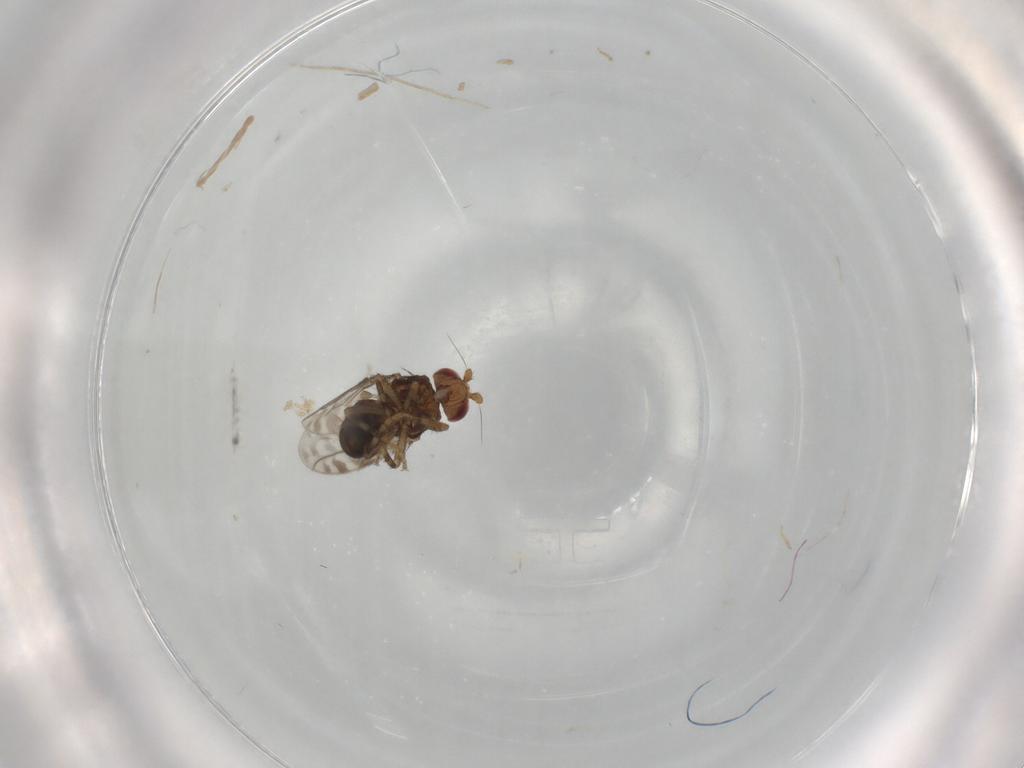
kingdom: Animalia
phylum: Arthropoda
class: Insecta
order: Diptera
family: Sphaeroceridae
